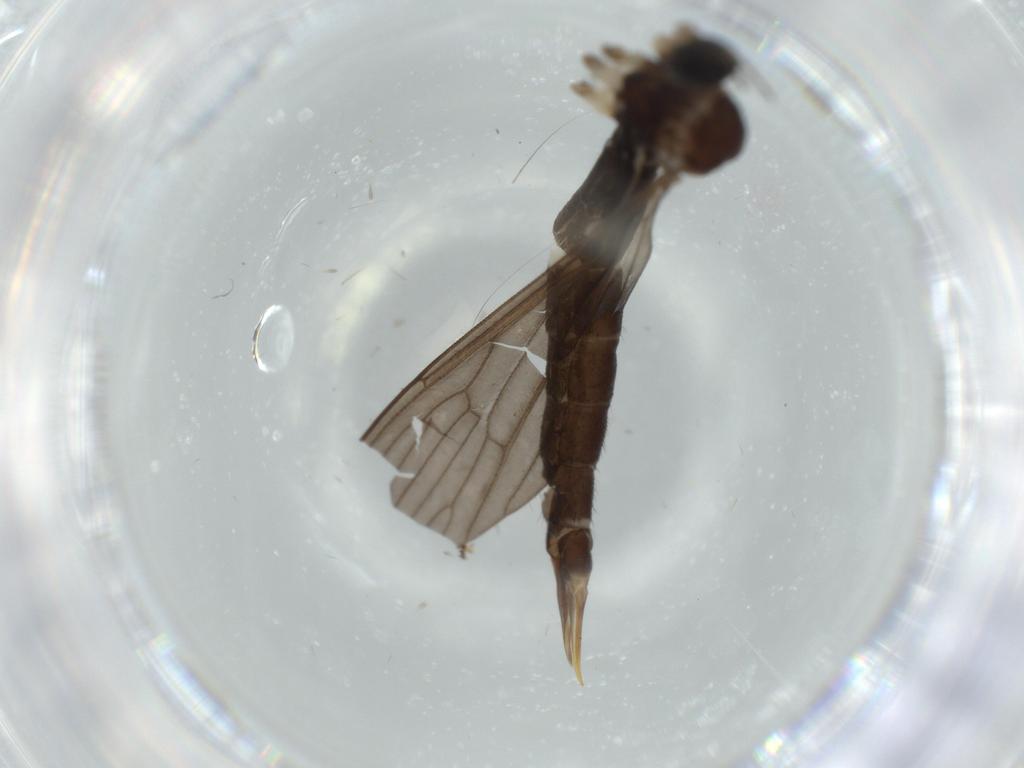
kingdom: Animalia
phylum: Arthropoda
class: Insecta
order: Diptera
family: Limoniidae
